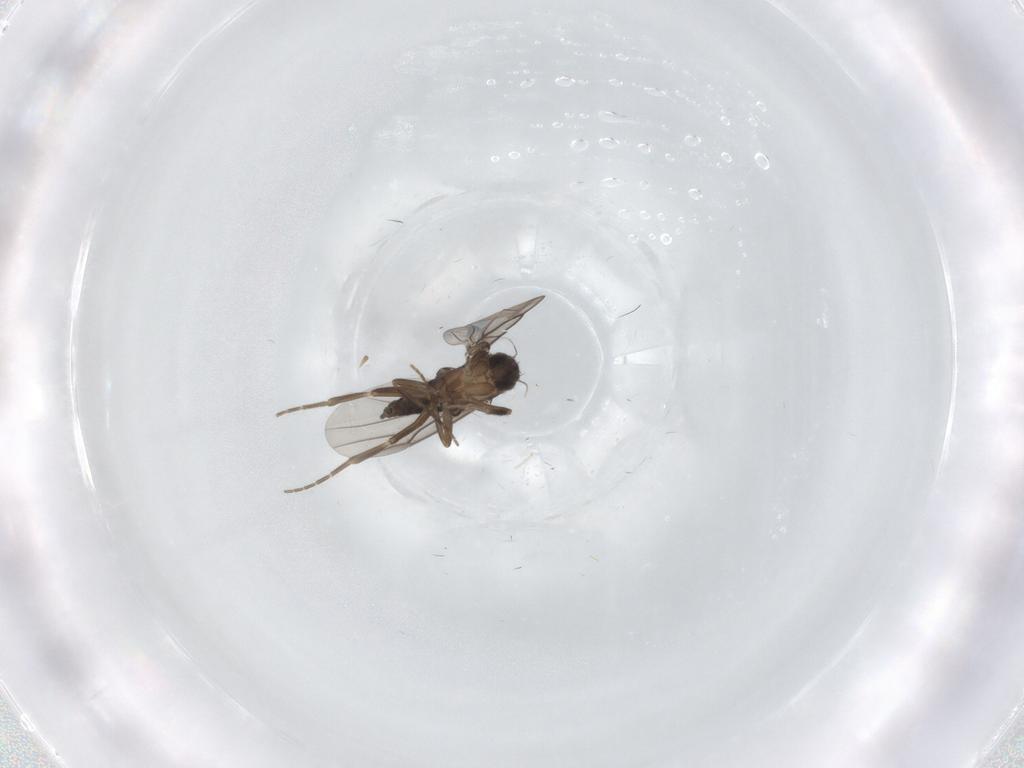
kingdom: Animalia
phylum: Arthropoda
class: Insecta
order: Diptera
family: Phoridae
